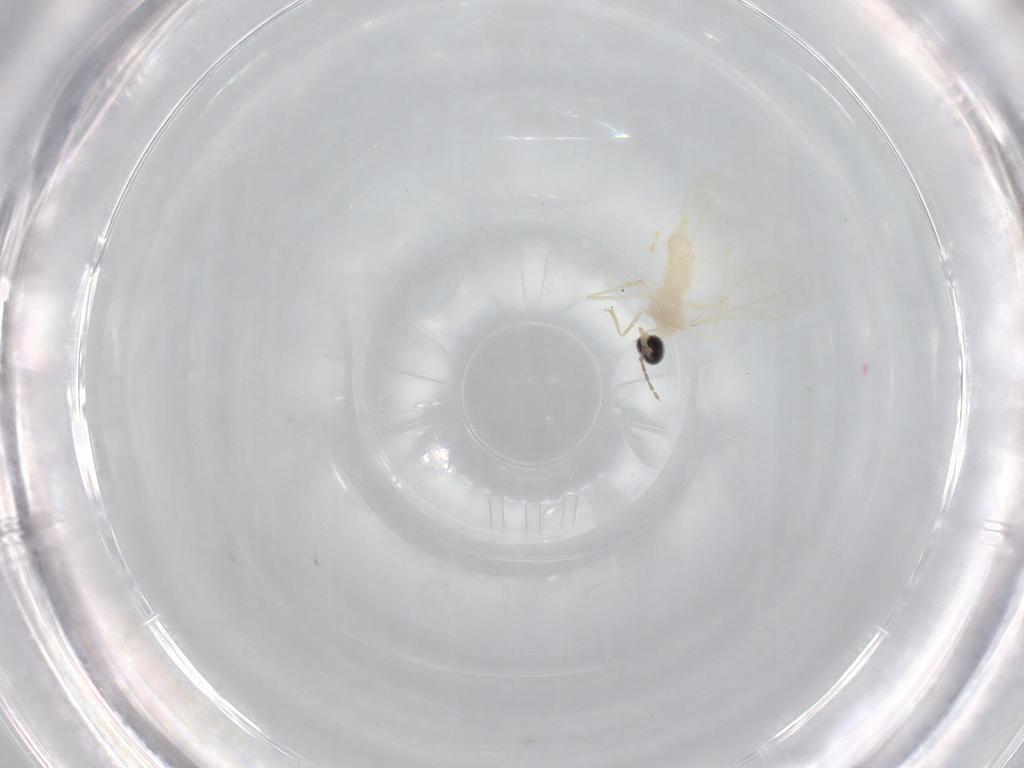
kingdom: Animalia
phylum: Arthropoda
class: Insecta
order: Diptera
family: Cecidomyiidae
